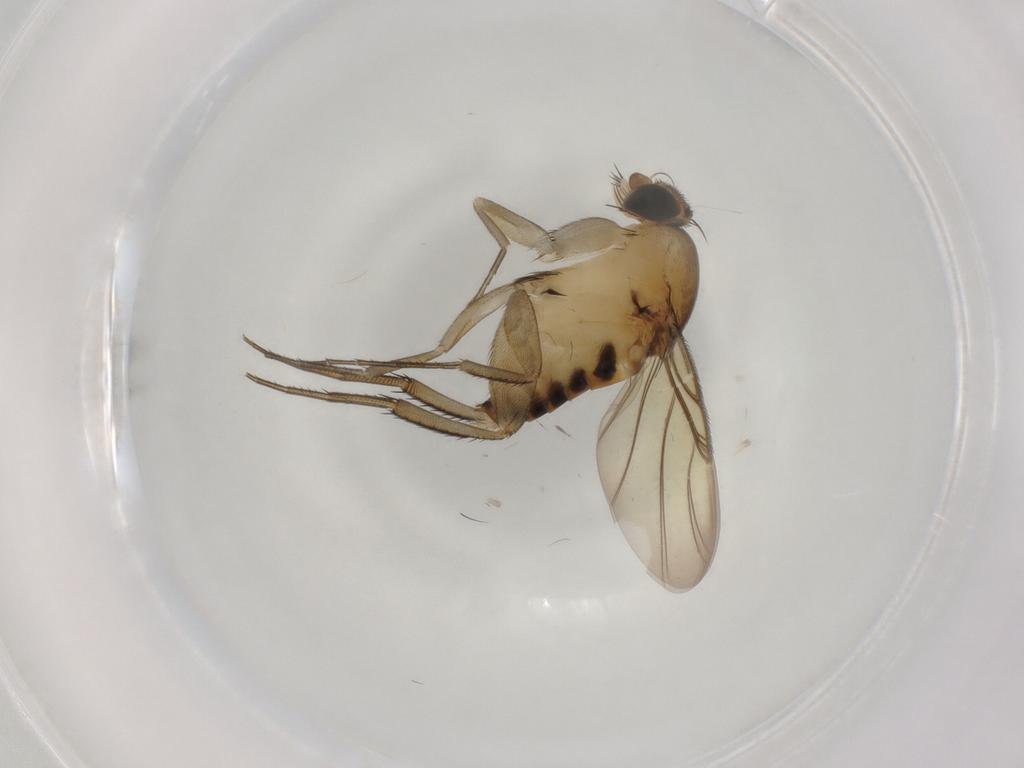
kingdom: Animalia
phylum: Arthropoda
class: Insecta
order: Diptera
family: Phoridae
